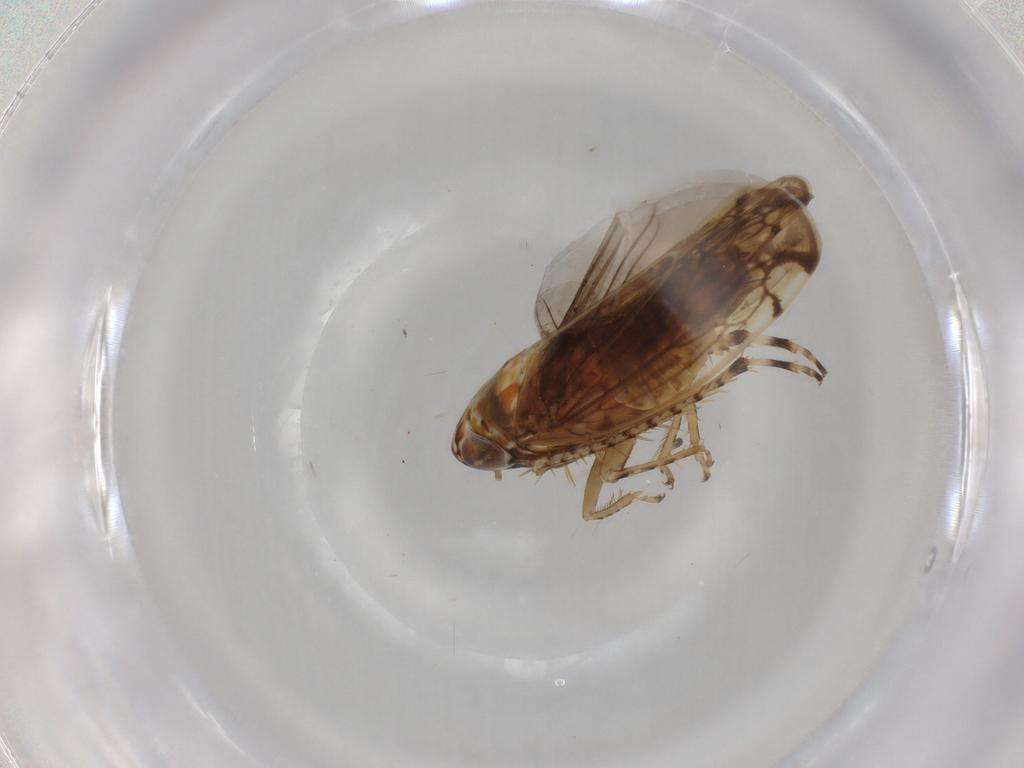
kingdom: Animalia
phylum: Arthropoda
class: Insecta
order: Hemiptera
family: Cicadellidae
